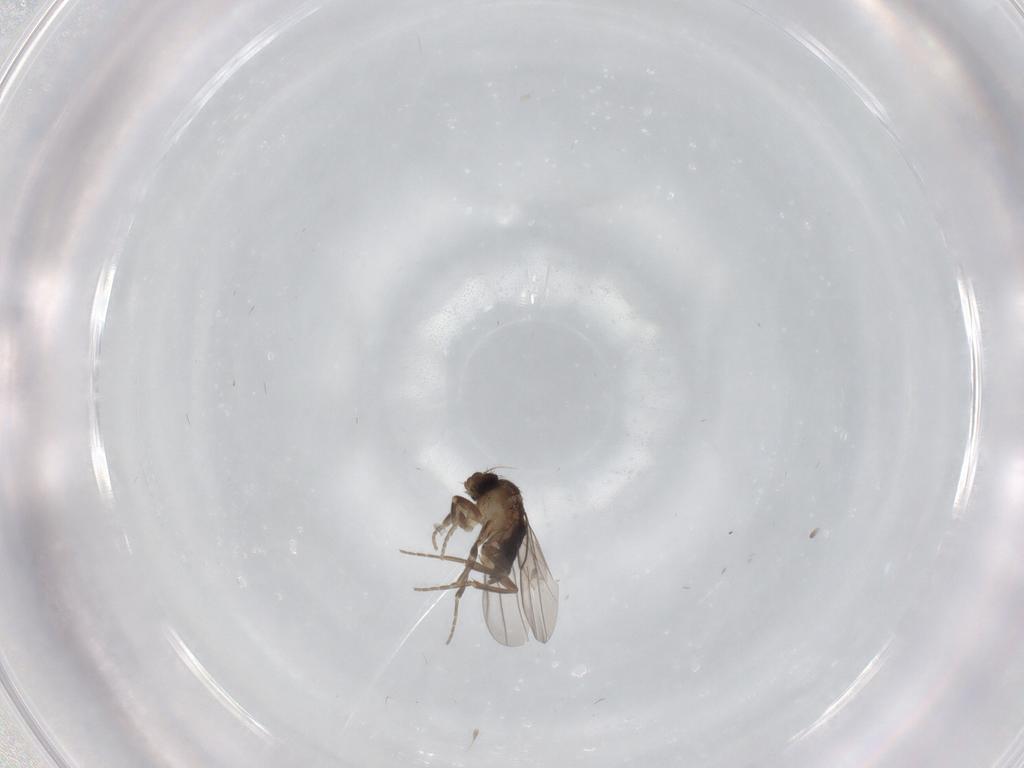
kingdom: Animalia
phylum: Arthropoda
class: Insecta
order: Diptera
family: Phoridae
